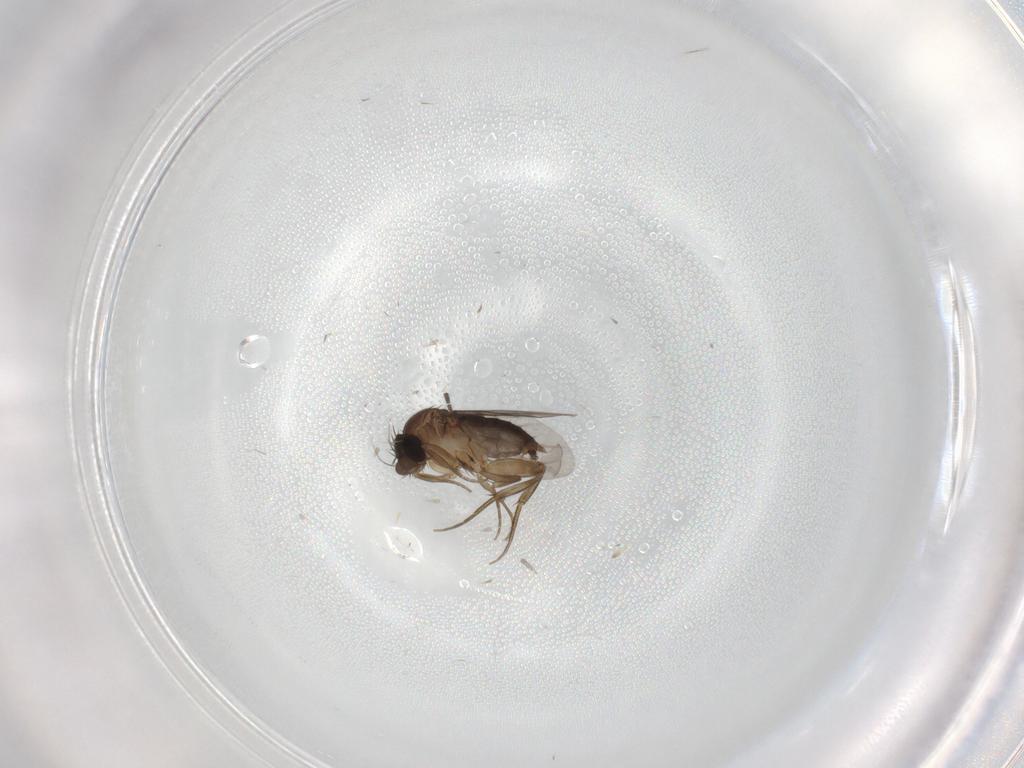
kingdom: Animalia
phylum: Arthropoda
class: Insecta
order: Diptera
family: Sciaridae
